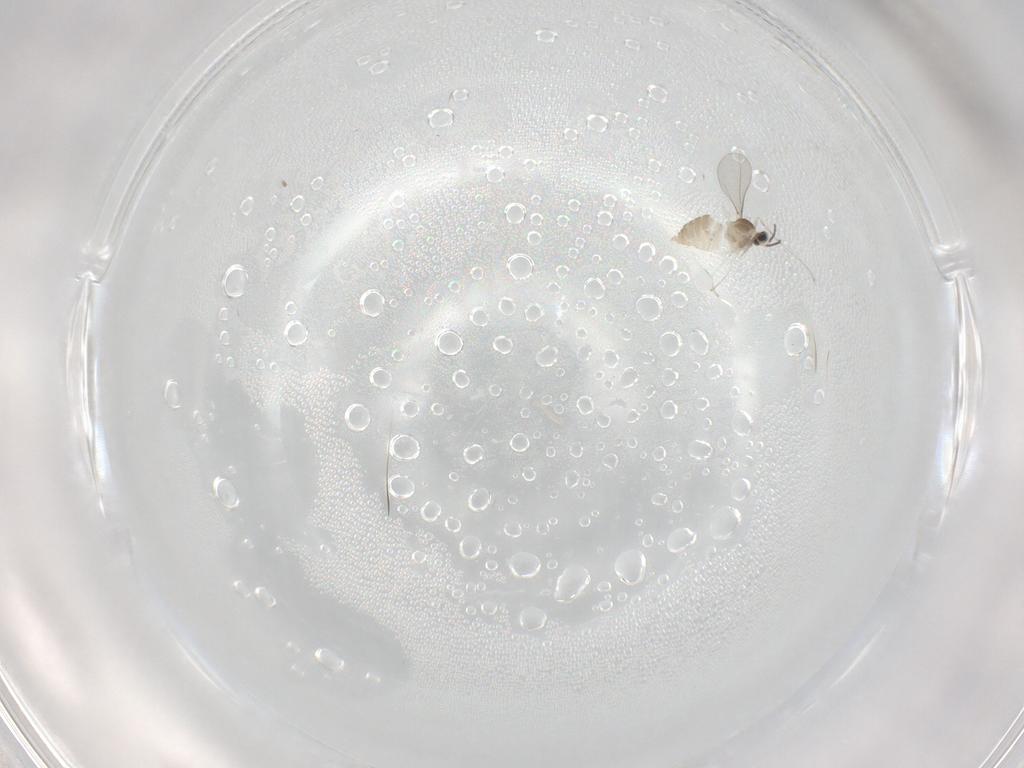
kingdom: Animalia
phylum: Arthropoda
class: Insecta
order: Diptera
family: Cecidomyiidae
